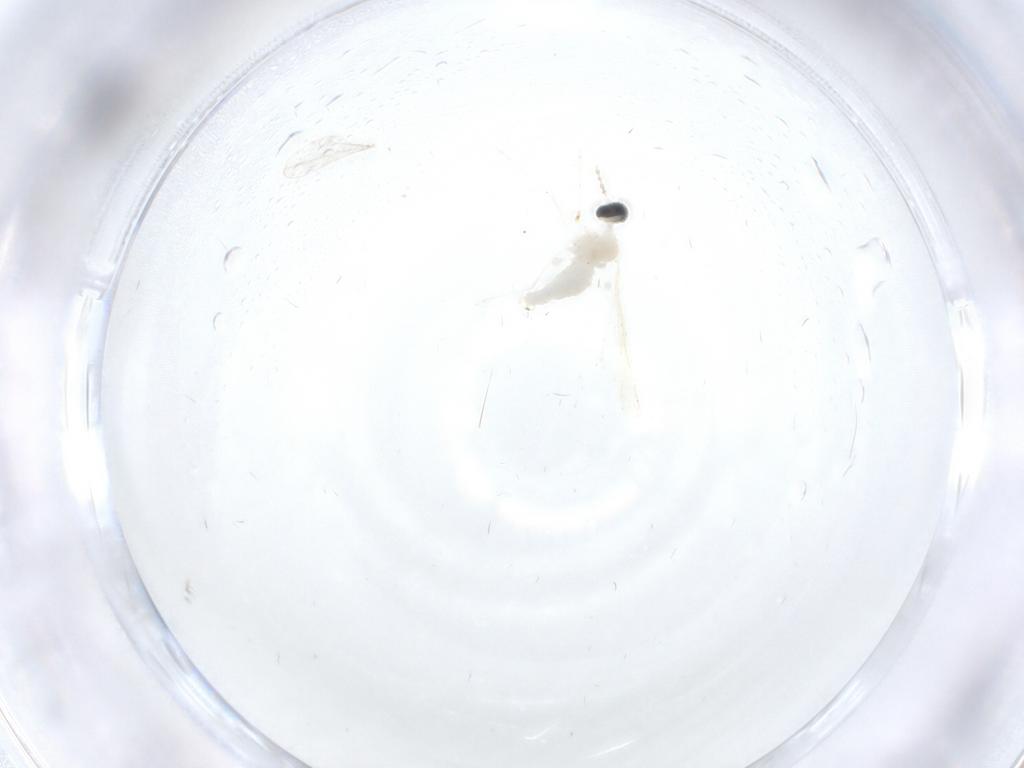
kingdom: Animalia
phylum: Arthropoda
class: Insecta
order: Diptera
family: Cecidomyiidae
